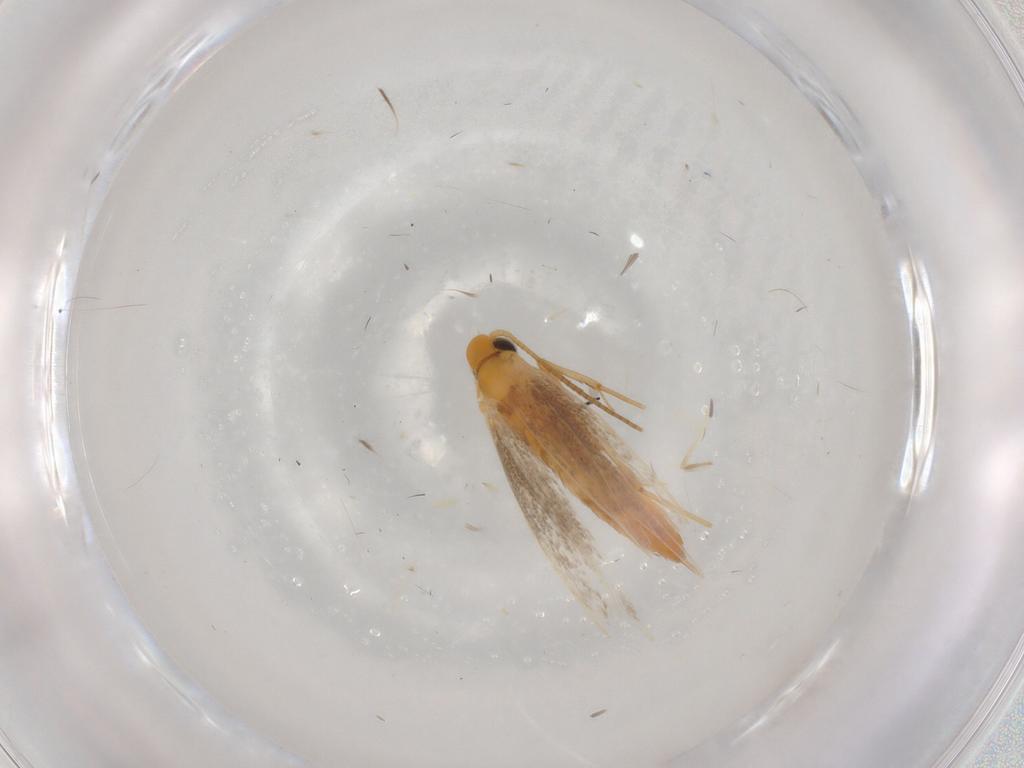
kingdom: Animalia
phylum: Arthropoda
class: Insecta
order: Lepidoptera
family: Gracillariidae
